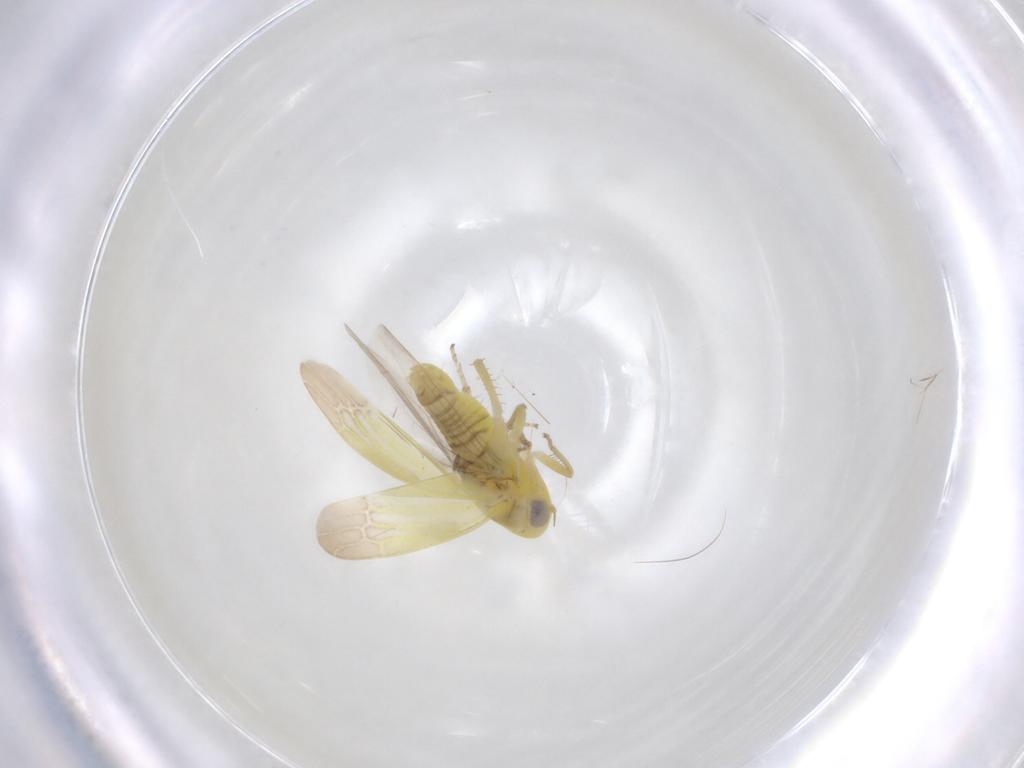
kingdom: Animalia
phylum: Arthropoda
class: Insecta
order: Hemiptera
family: Cicadellidae
